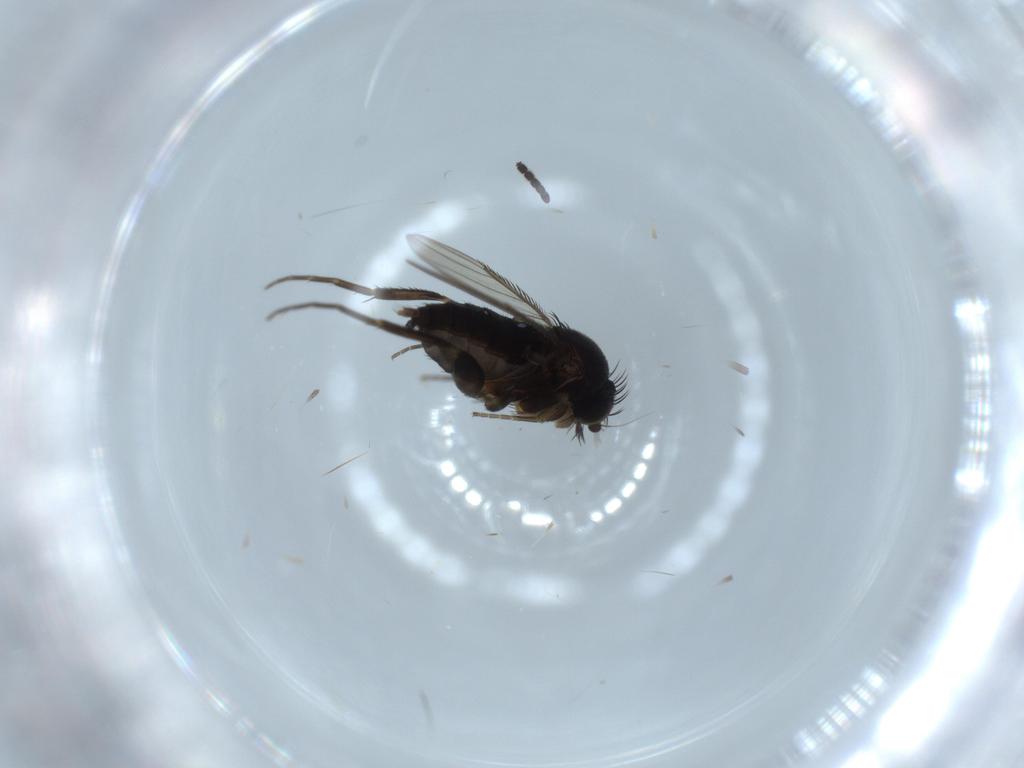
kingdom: Animalia
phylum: Arthropoda
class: Insecta
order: Diptera
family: Phoridae
